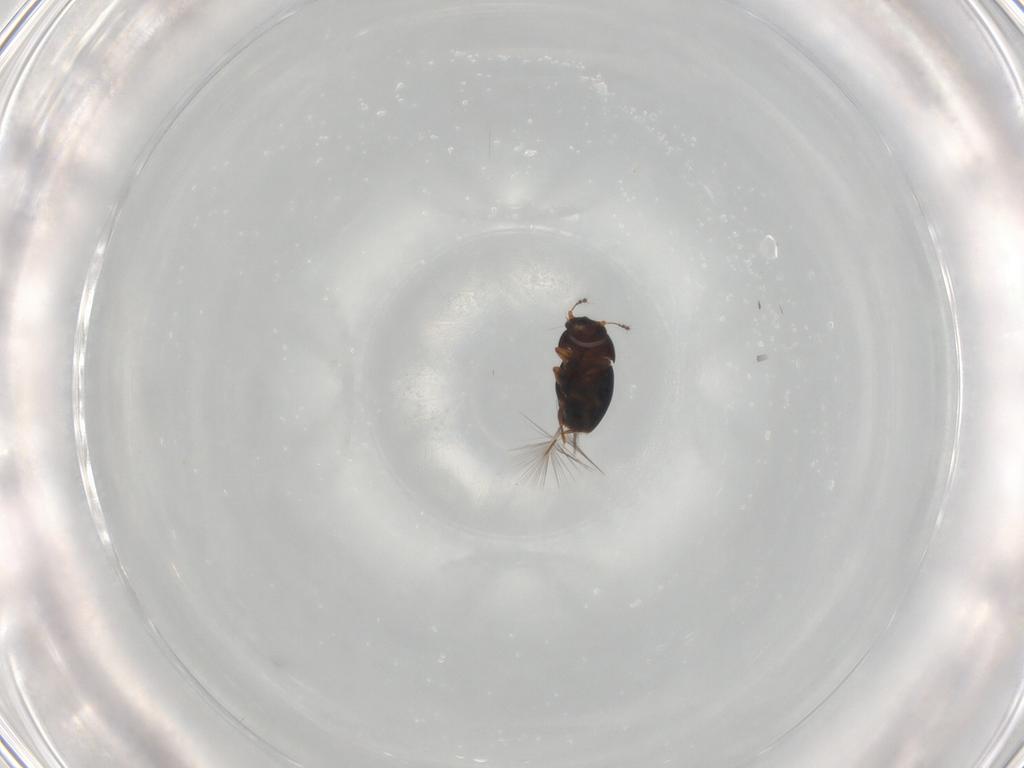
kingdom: Animalia
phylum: Arthropoda
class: Insecta
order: Coleoptera
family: Ptiliidae
